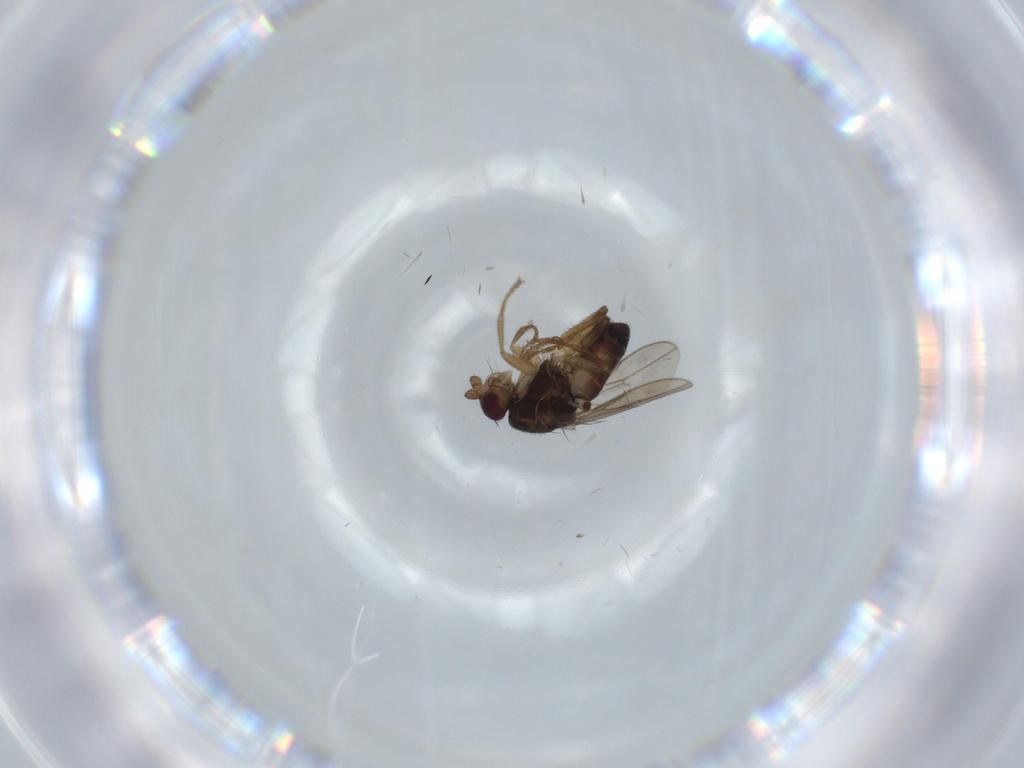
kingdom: Animalia
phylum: Arthropoda
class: Insecta
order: Diptera
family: Sphaeroceridae
